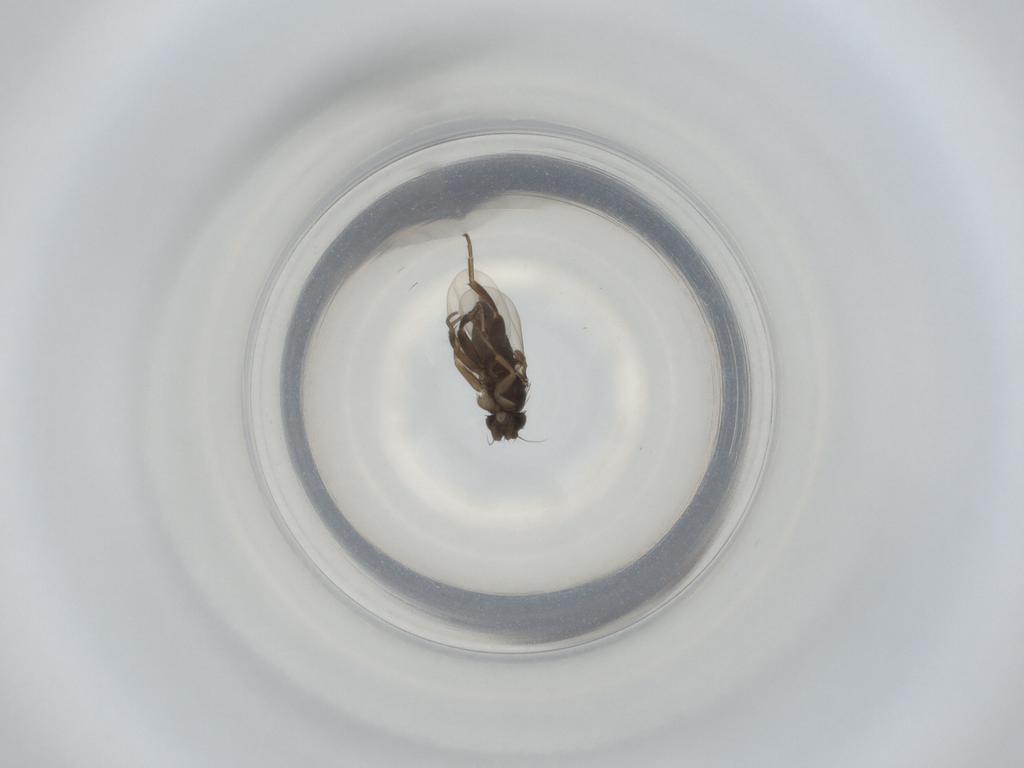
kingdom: Animalia
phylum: Arthropoda
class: Insecta
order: Diptera
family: Phoridae
